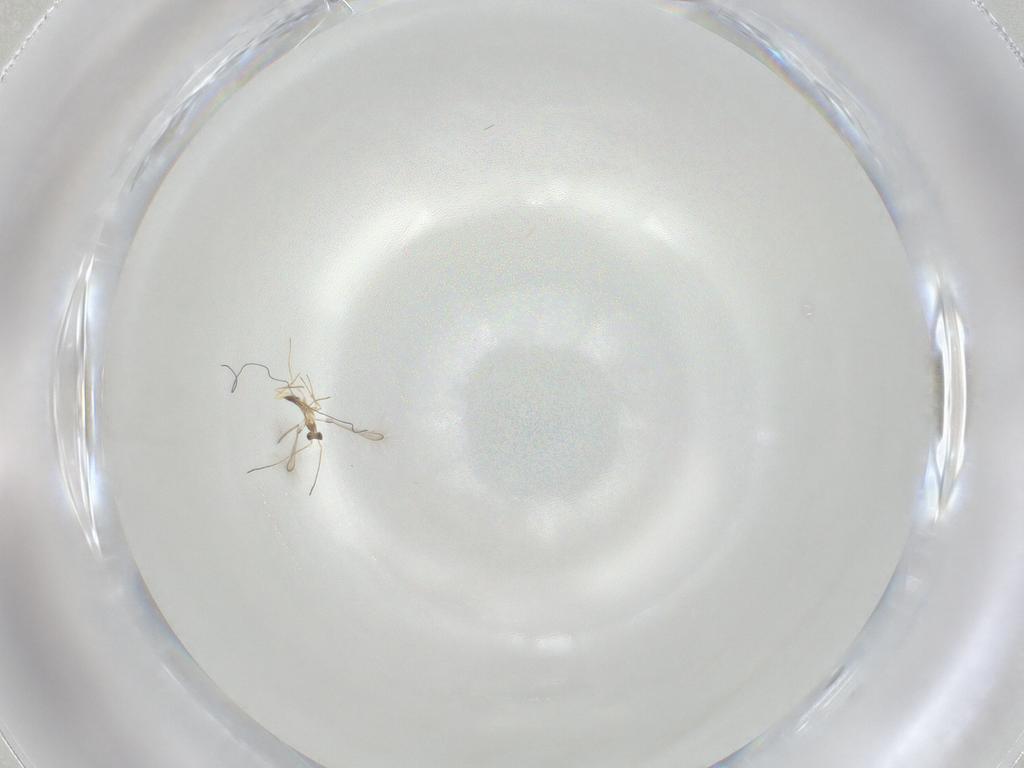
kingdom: Animalia
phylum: Arthropoda
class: Insecta
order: Hymenoptera
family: Mymaridae
